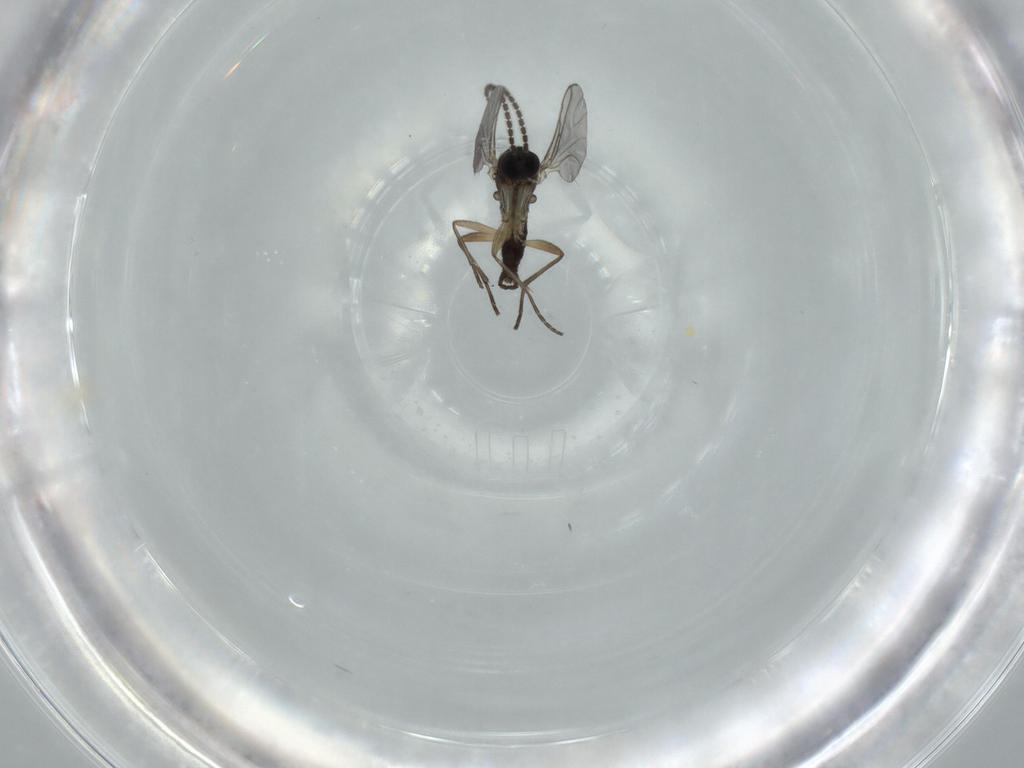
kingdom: Animalia
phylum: Arthropoda
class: Insecta
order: Diptera
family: Sciaridae
